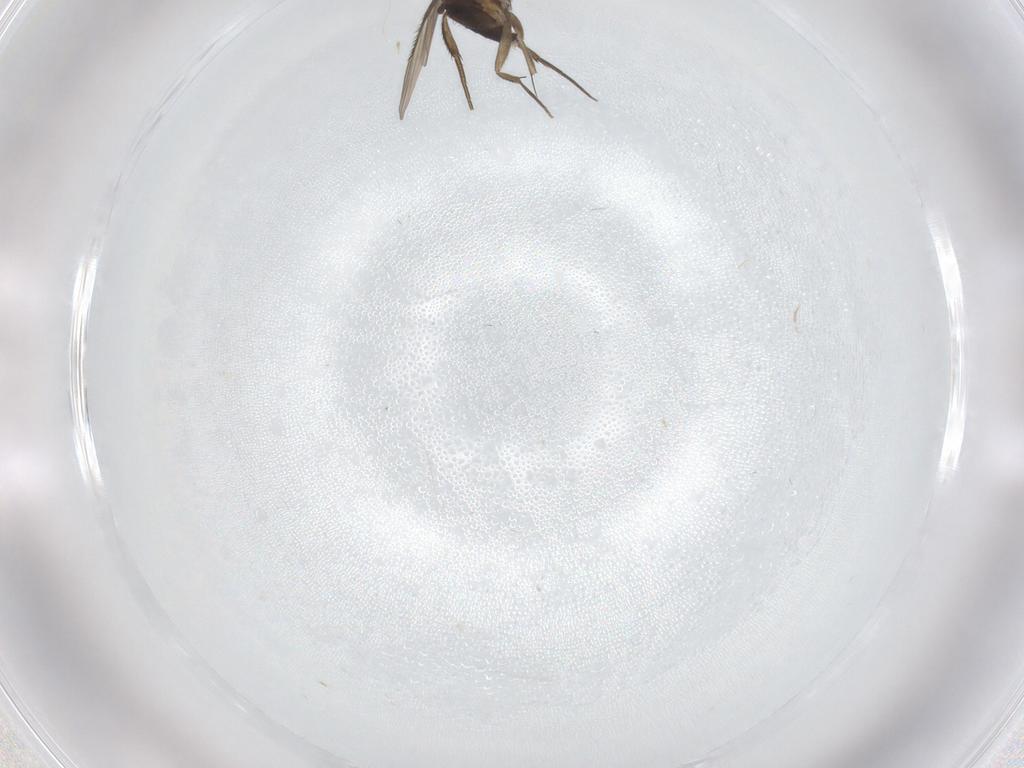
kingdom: Animalia
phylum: Arthropoda
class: Insecta
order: Diptera
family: Phoridae
